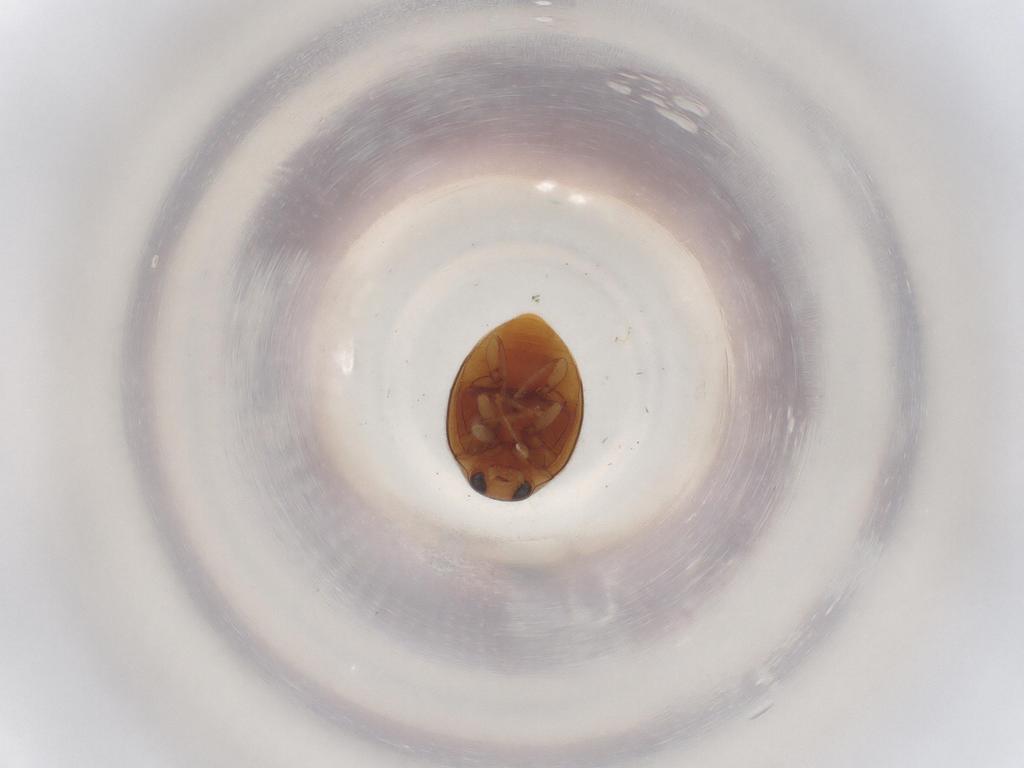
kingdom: Animalia
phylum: Arthropoda
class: Insecta
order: Coleoptera
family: Coccinellidae
